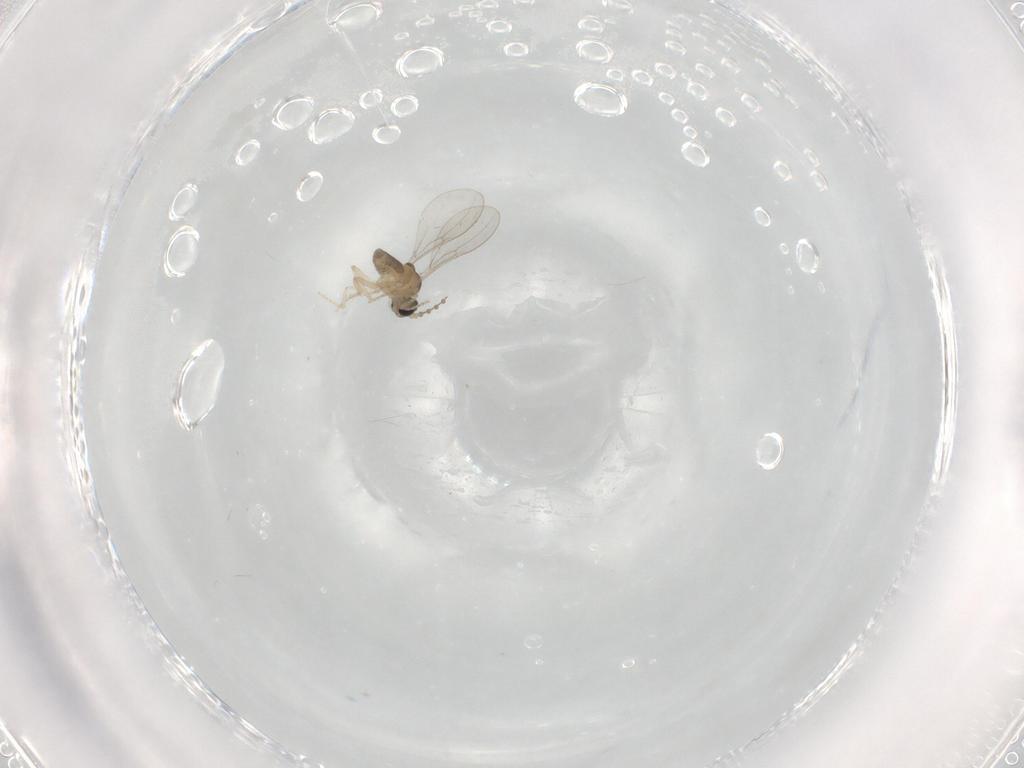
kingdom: Animalia
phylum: Arthropoda
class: Insecta
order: Diptera
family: Cecidomyiidae
